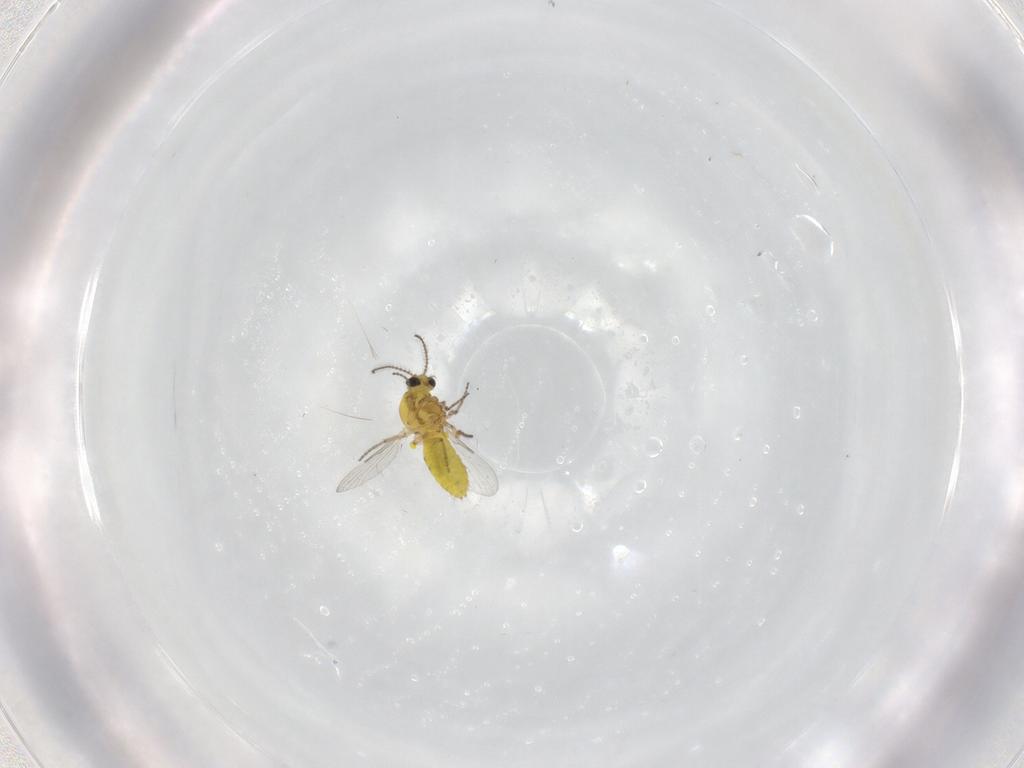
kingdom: Animalia
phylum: Arthropoda
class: Insecta
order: Diptera
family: Ceratopogonidae
